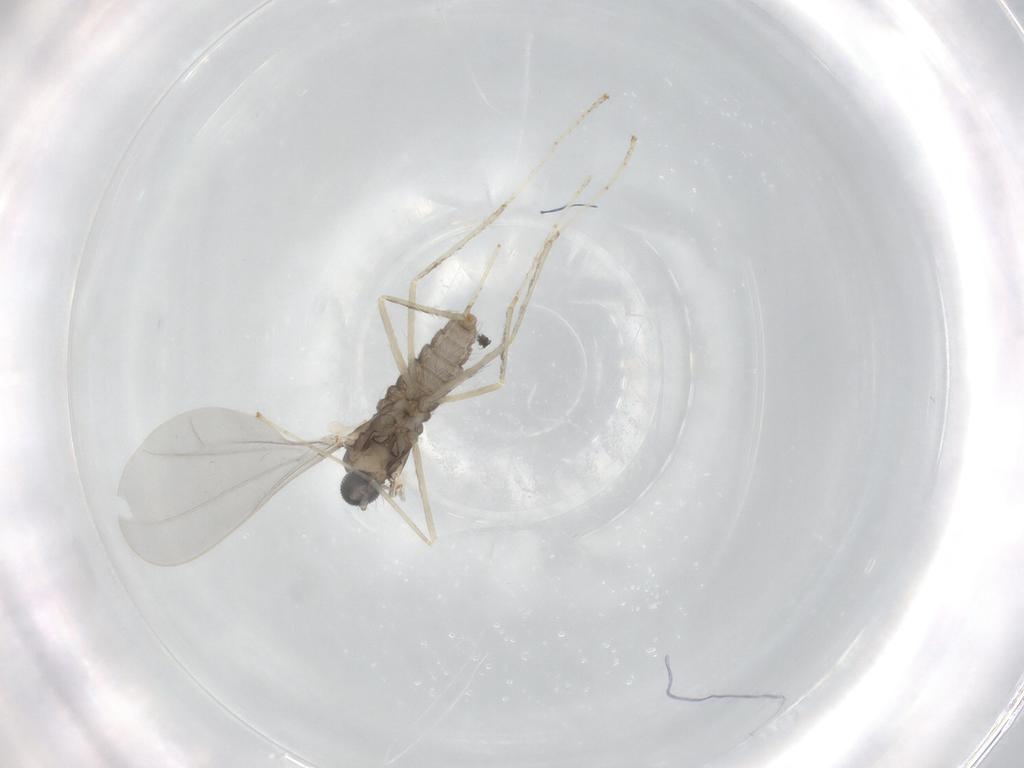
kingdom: Animalia
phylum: Arthropoda
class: Insecta
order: Diptera
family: Cecidomyiidae
